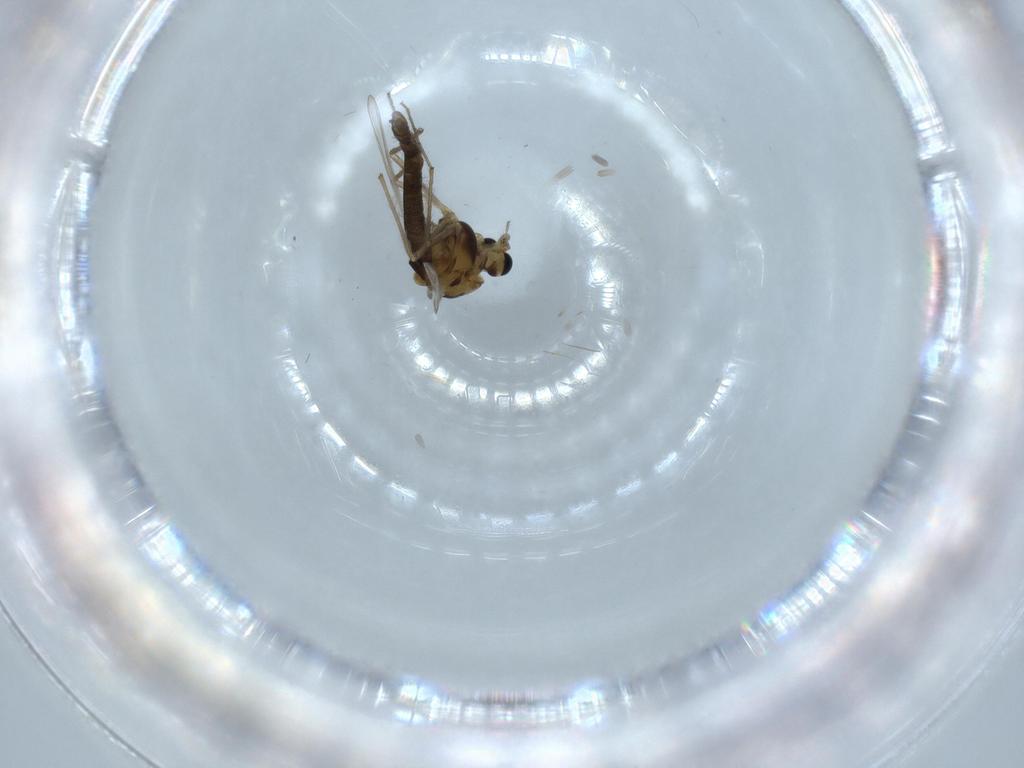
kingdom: Animalia
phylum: Arthropoda
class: Insecta
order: Diptera
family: Chironomidae
